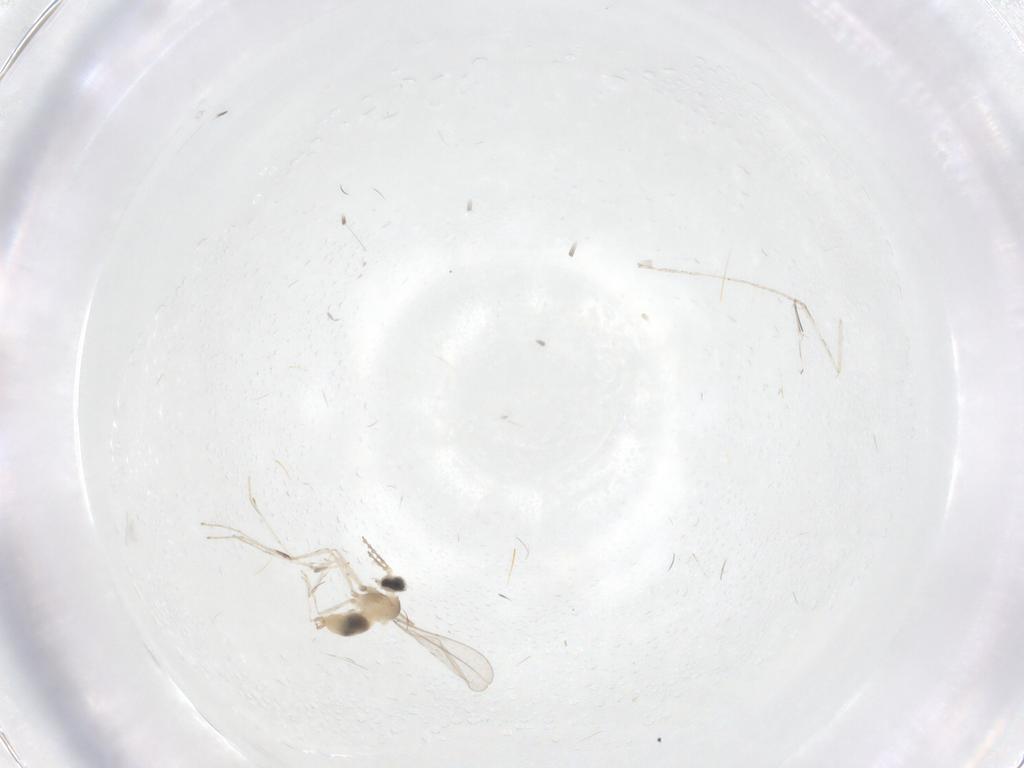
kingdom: Animalia
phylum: Arthropoda
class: Insecta
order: Diptera
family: Cecidomyiidae
